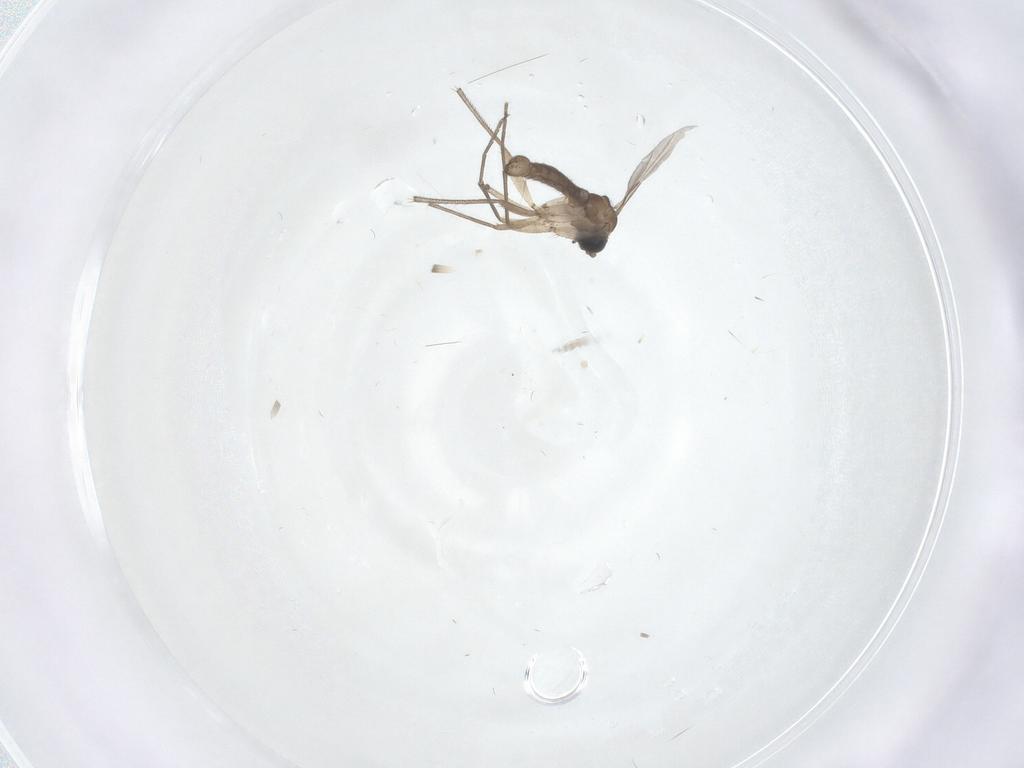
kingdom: Animalia
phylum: Arthropoda
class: Insecta
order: Diptera
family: Sciaridae
